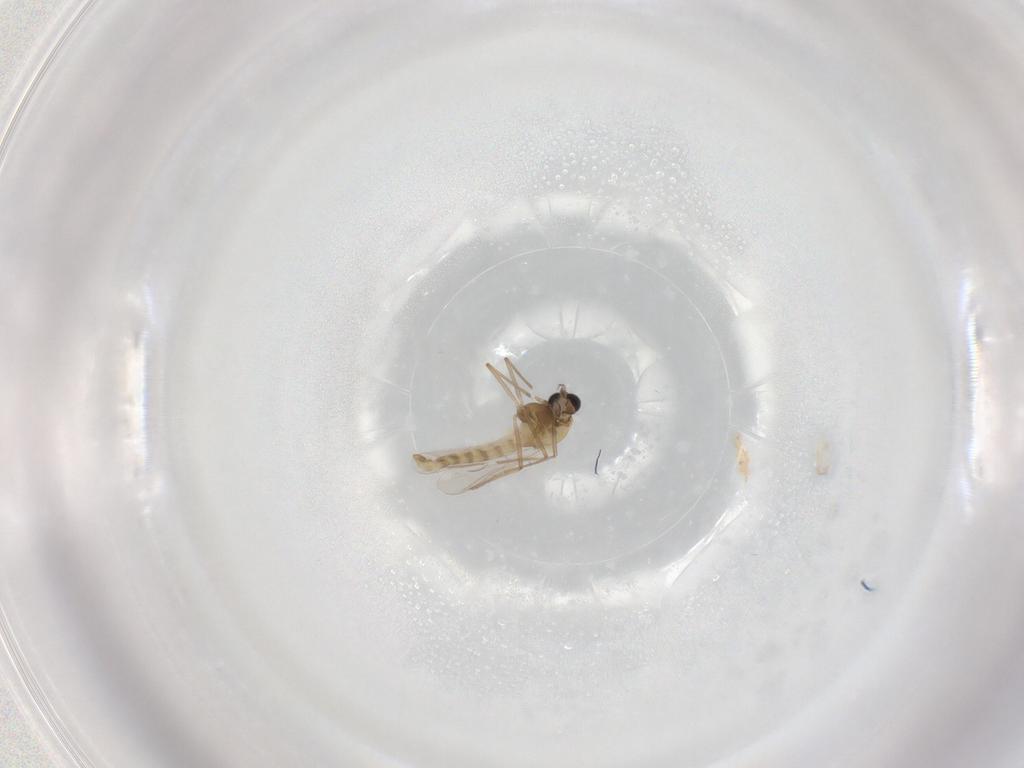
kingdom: Animalia
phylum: Arthropoda
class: Insecta
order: Diptera
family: Chironomidae
